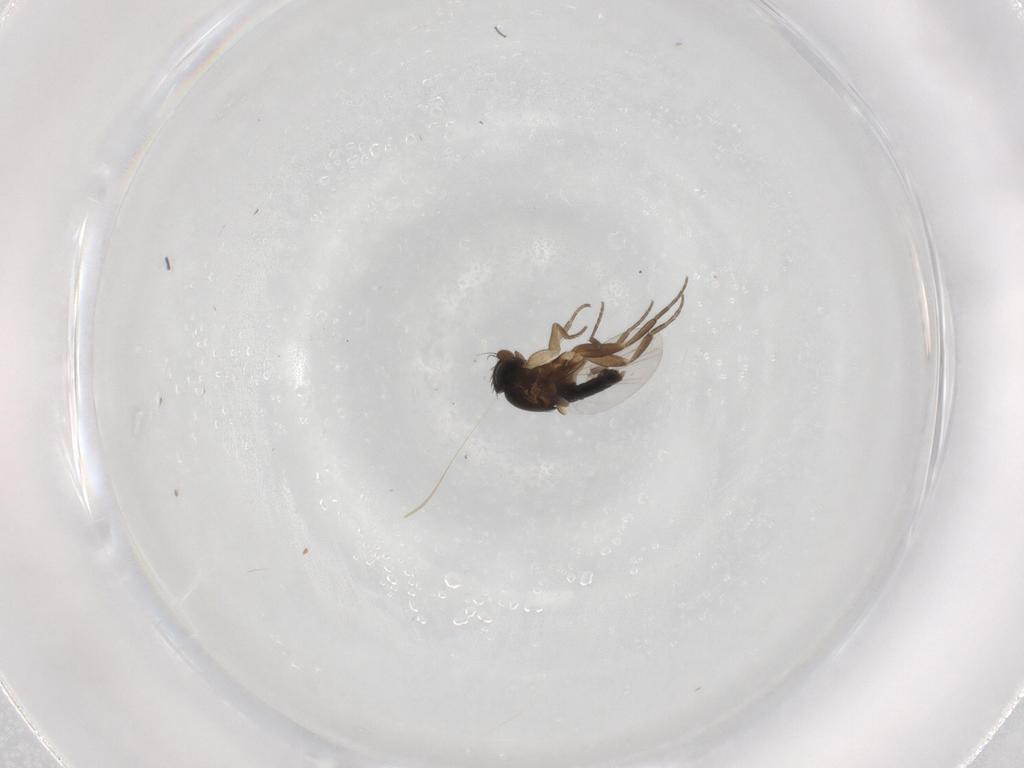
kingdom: Animalia
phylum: Arthropoda
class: Insecta
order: Diptera
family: Phoridae
